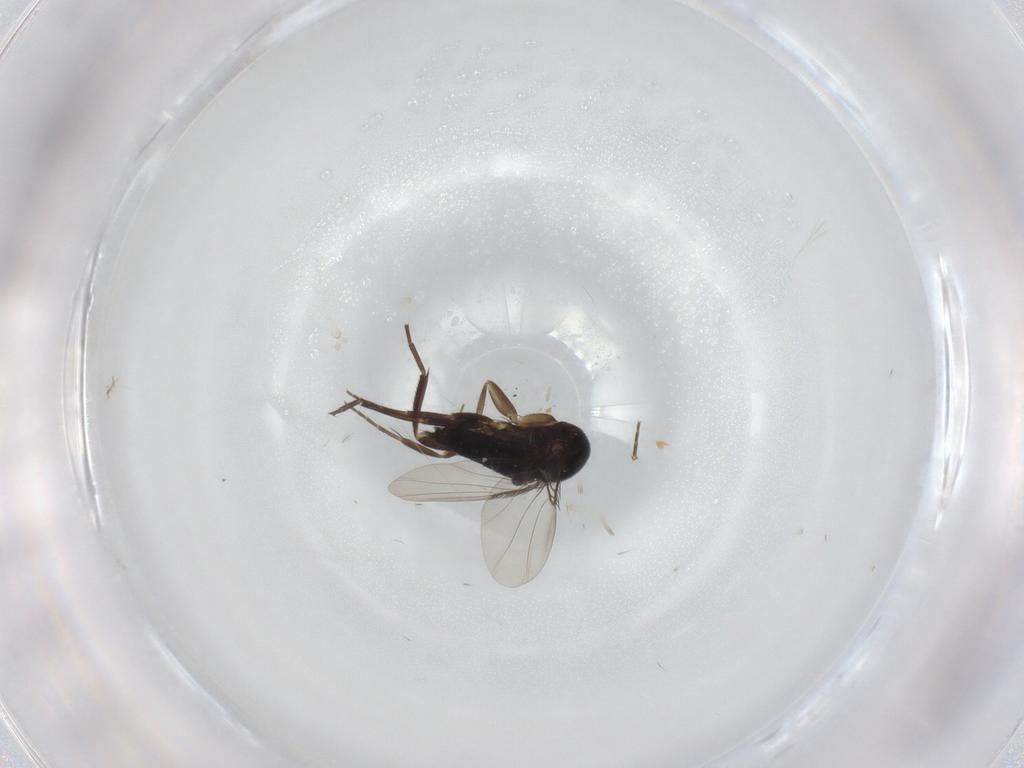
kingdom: Animalia
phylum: Arthropoda
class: Insecta
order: Diptera
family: Phoridae
